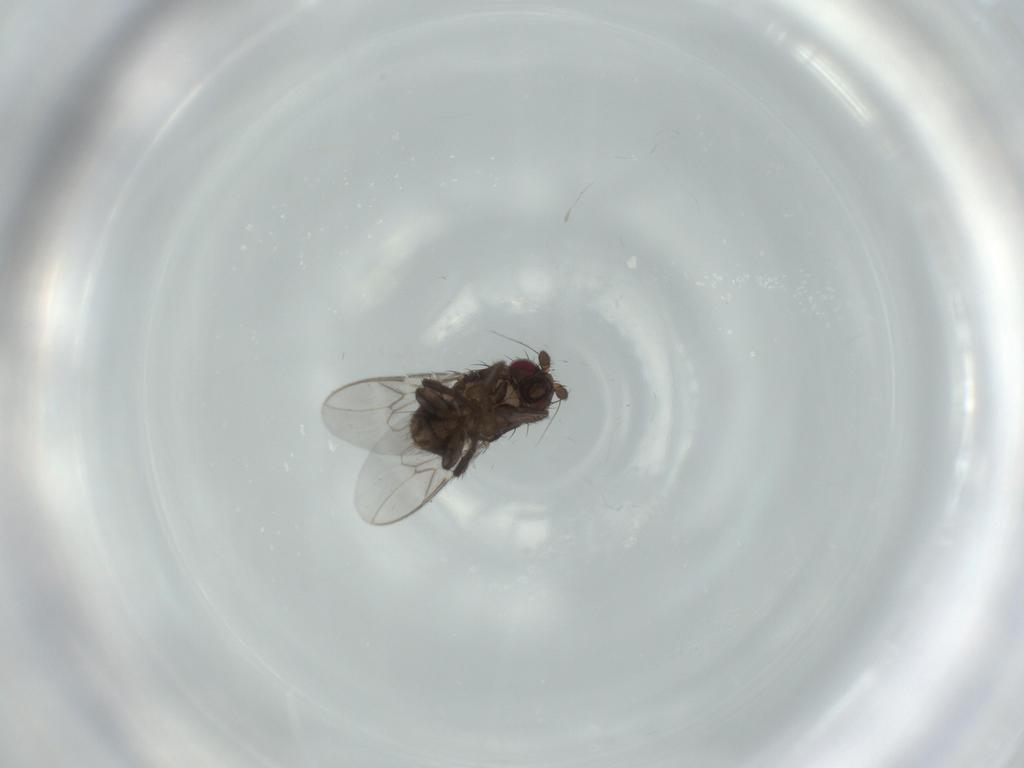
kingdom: Animalia
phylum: Arthropoda
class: Insecta
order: Diptera
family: Sphaeroceridae
